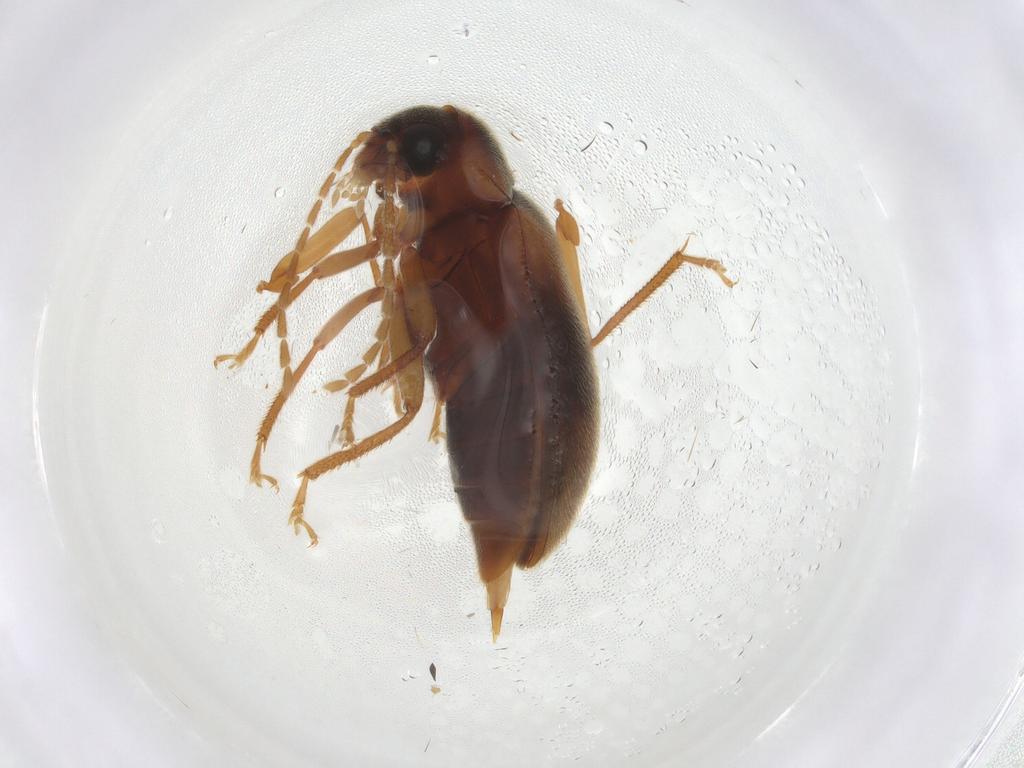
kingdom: Animalia
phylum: Arthropoda
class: Insecta
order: Coleoptera
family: Ptilodactylidae
